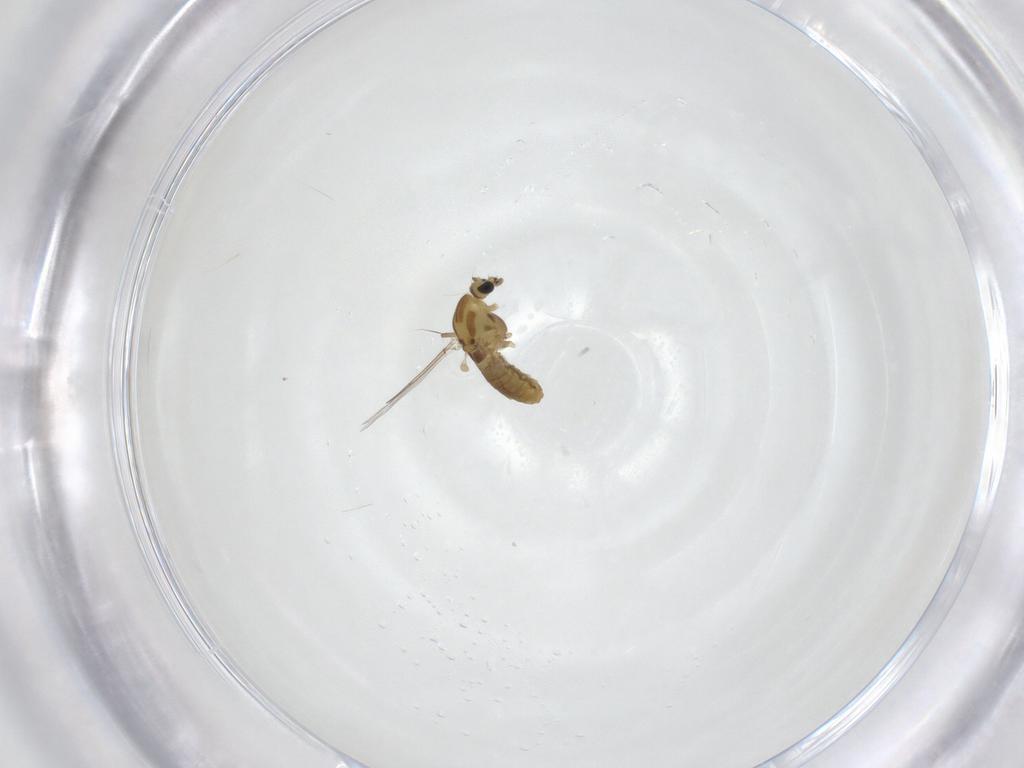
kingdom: Animalia
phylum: Arthropoda
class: Insecta
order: Diptera
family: Chironomidae
